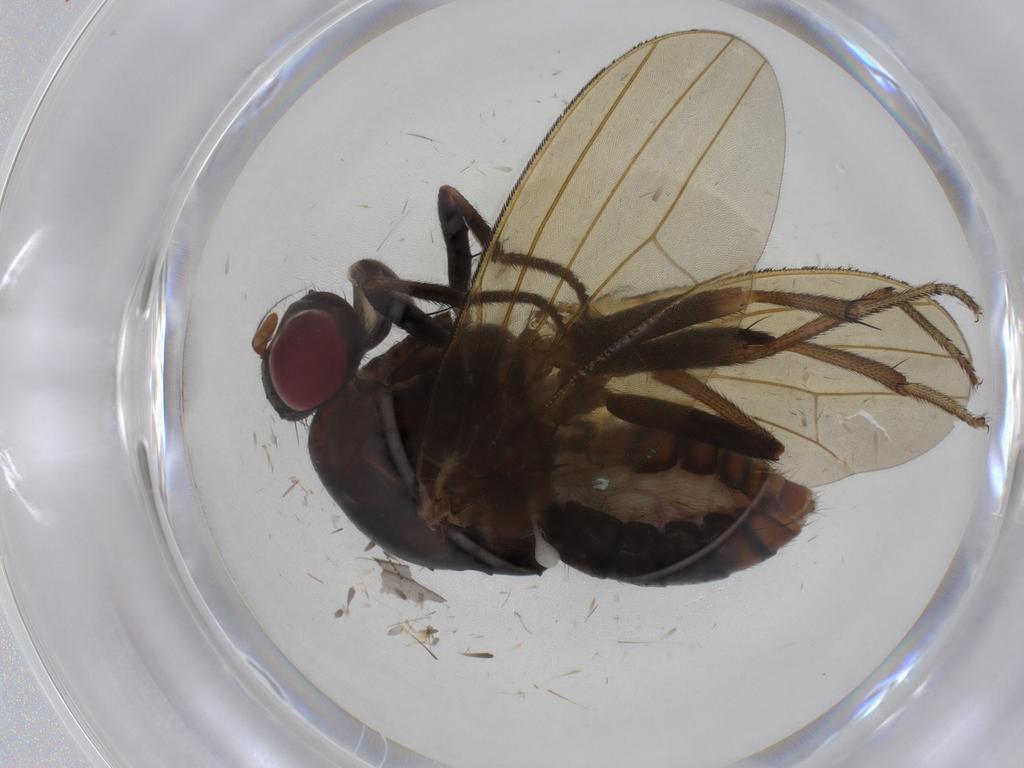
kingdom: Animalia
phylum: Arthropoda
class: Insecta
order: Diptera
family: Lauxaniidae
